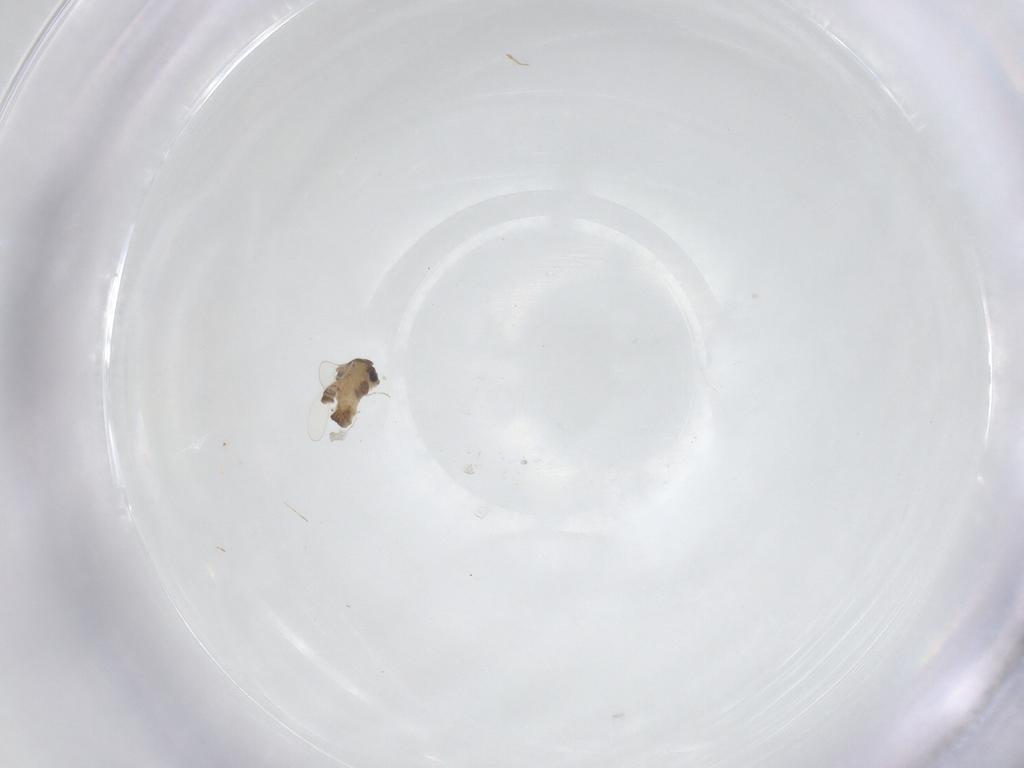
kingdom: Animalia
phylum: Arthropoda
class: Insecta
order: Diptera
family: Chironomidae
